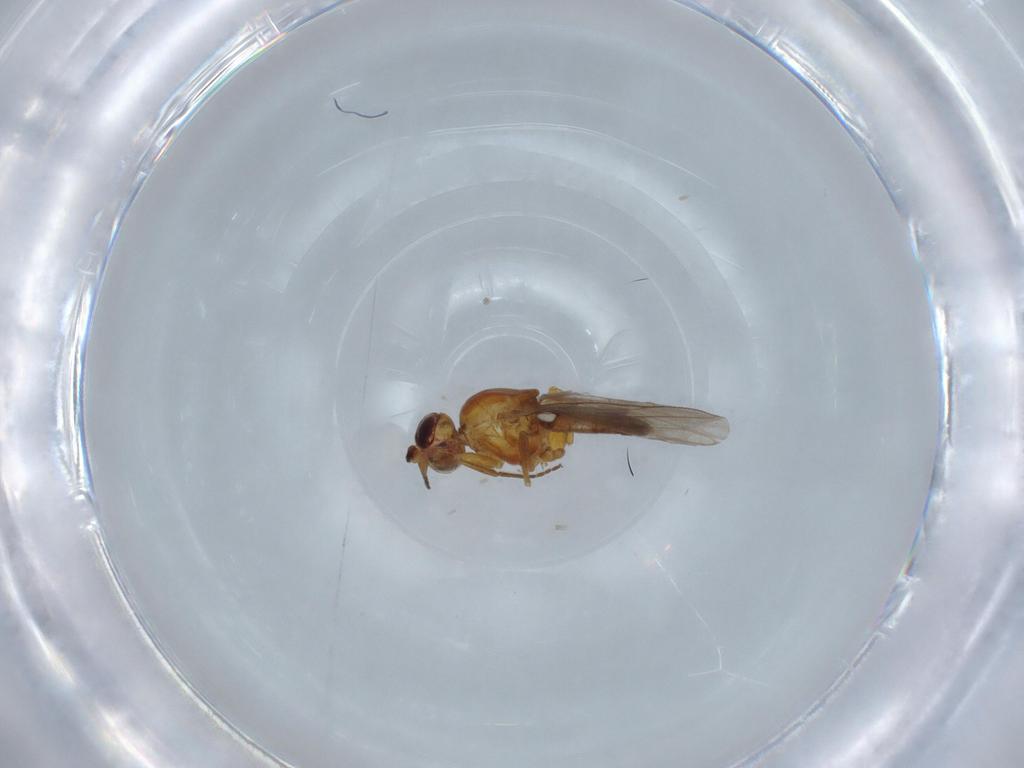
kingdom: Animalia
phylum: Arthropoda
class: Insecta
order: Diptera
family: Chloropidae
